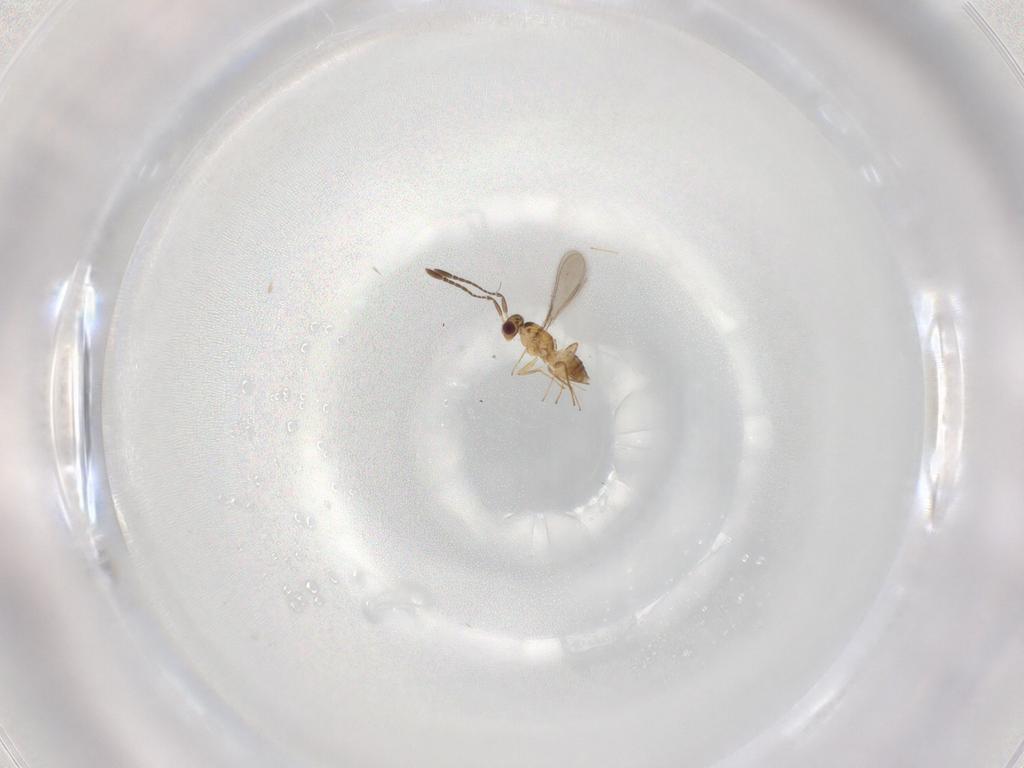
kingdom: Animalia
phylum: Arthropoda
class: Insecta
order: Hymenoptera
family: Mymaridae
